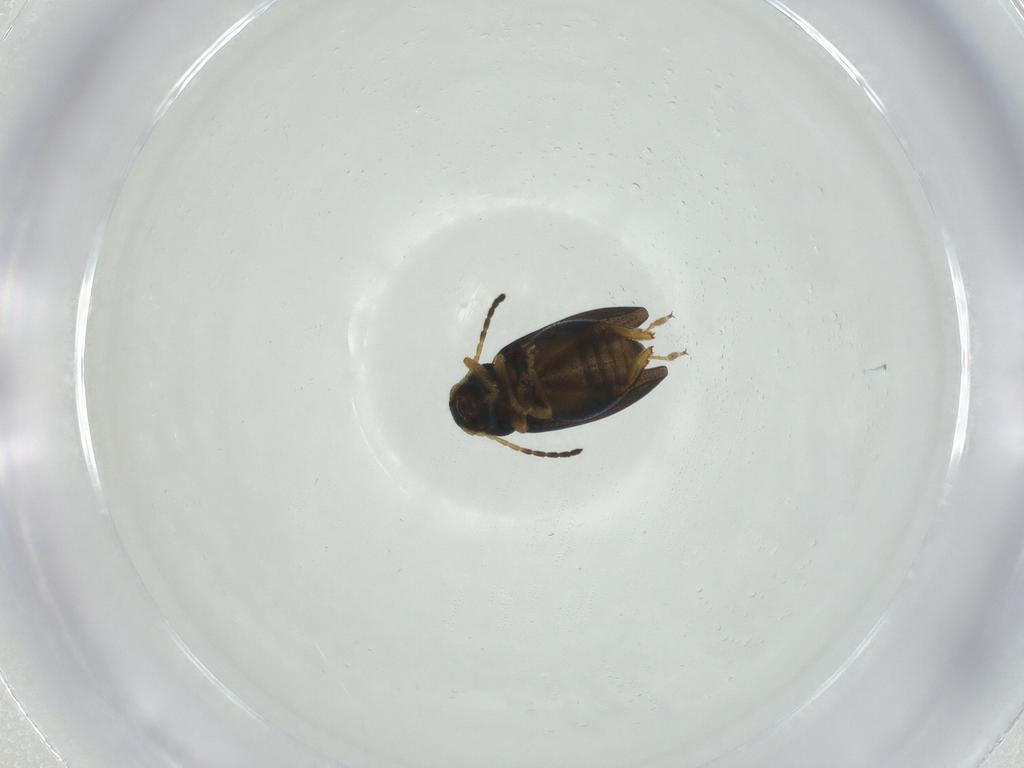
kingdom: Animalia
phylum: Arthropoda
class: Insecta
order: Coleoptera
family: Chrysomelidae
